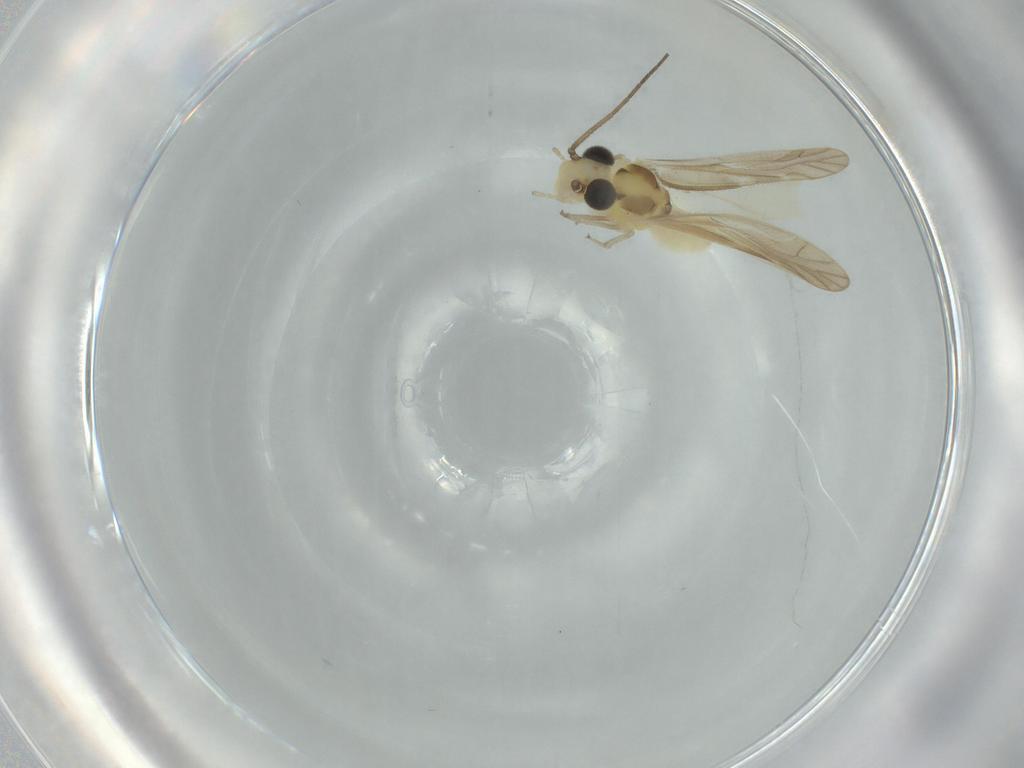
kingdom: Animalia
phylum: Arthropoda
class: Insecta
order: Psocodea
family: Caeciliusidae
